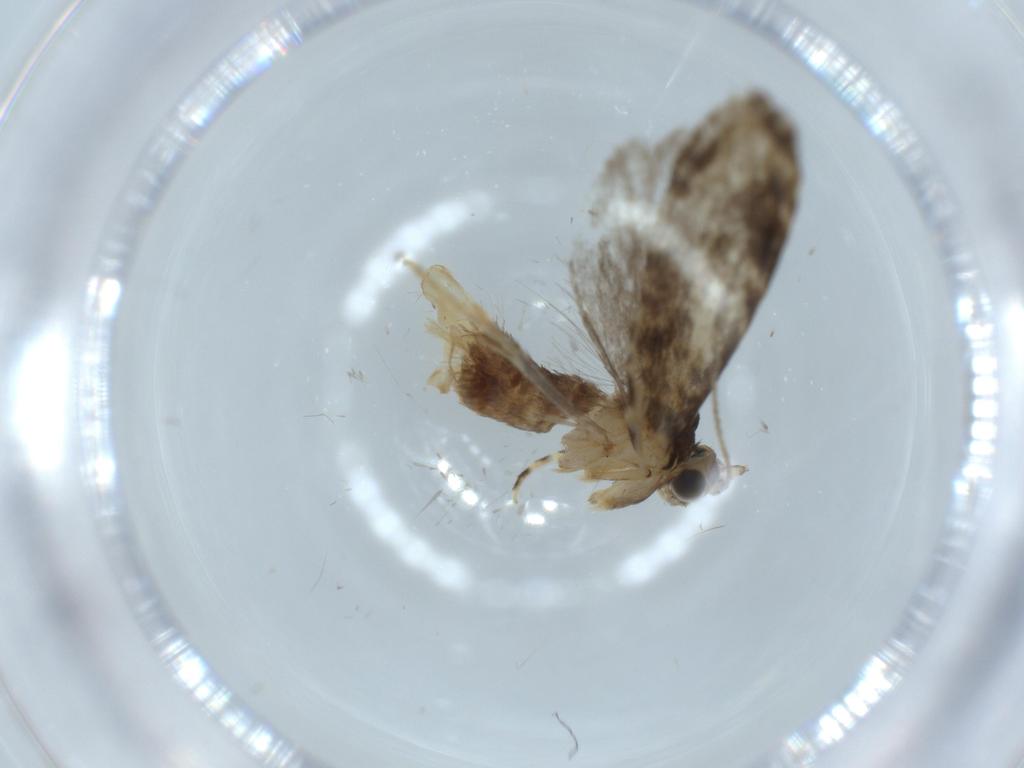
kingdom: Animalia
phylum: Arthropoda
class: Insecta
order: Lepidoptera
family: Tineidae
